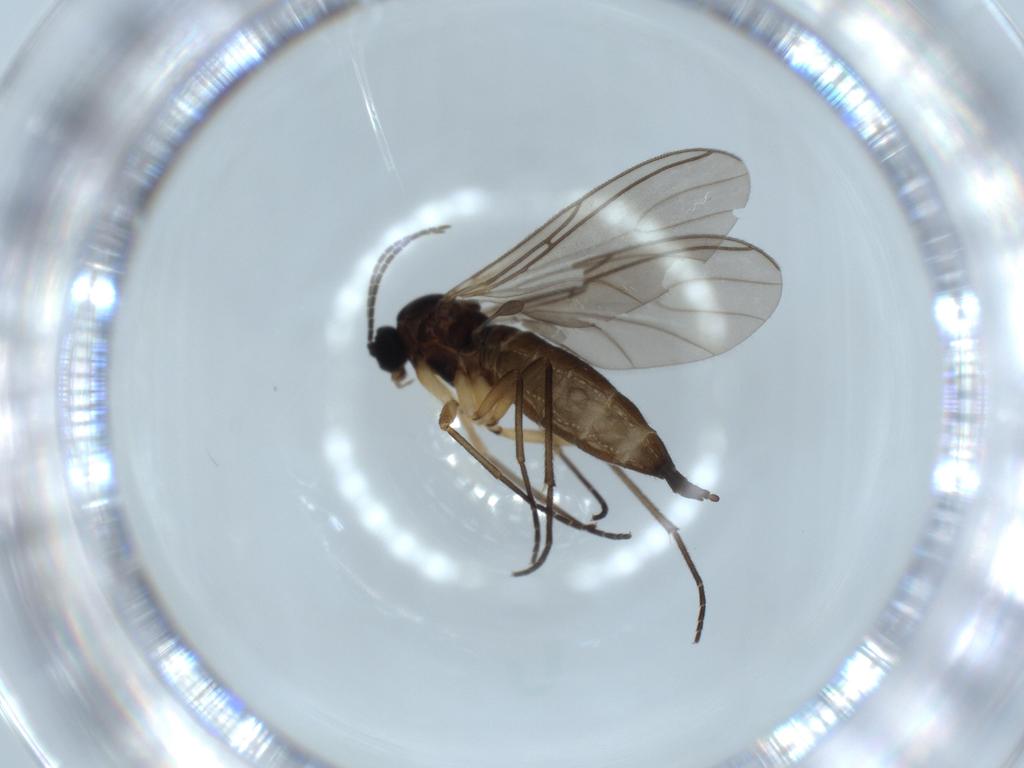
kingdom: Animalia
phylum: Arthropoda
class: Insecta
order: Diptera
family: Sciaridae
